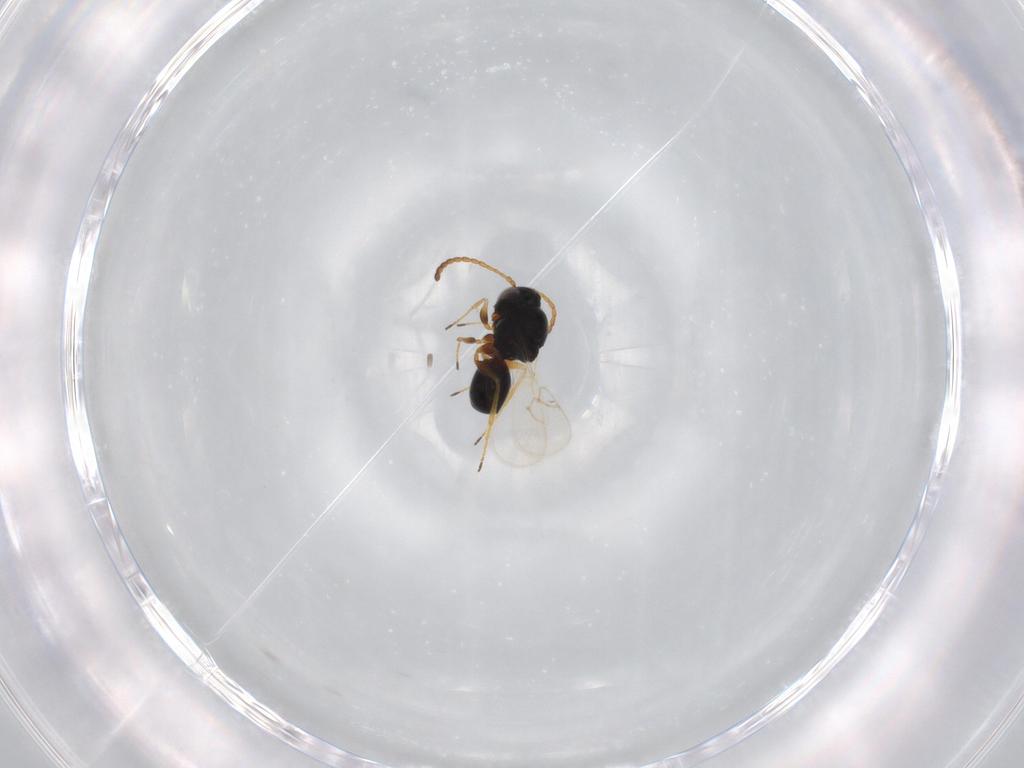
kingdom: Animalia
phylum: Arthropoda
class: Insecta
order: Hymenoptera
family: Figitidae
